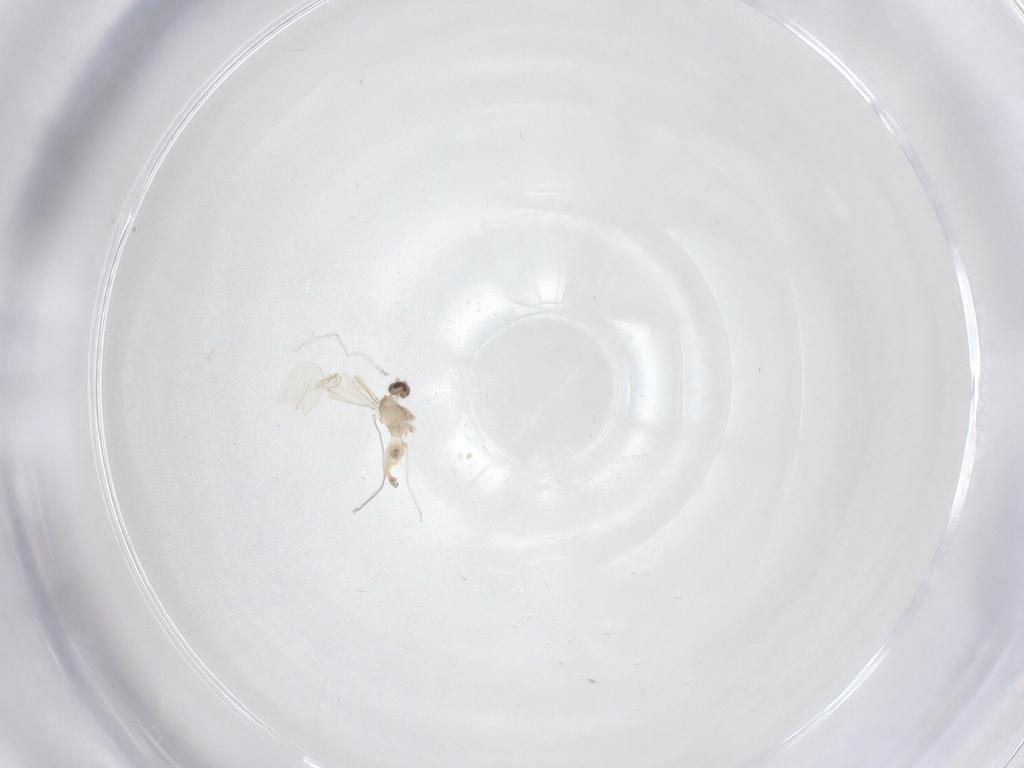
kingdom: Animalia
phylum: Arthropoda
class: Insecta
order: Diptera
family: Cecidomyiidae
